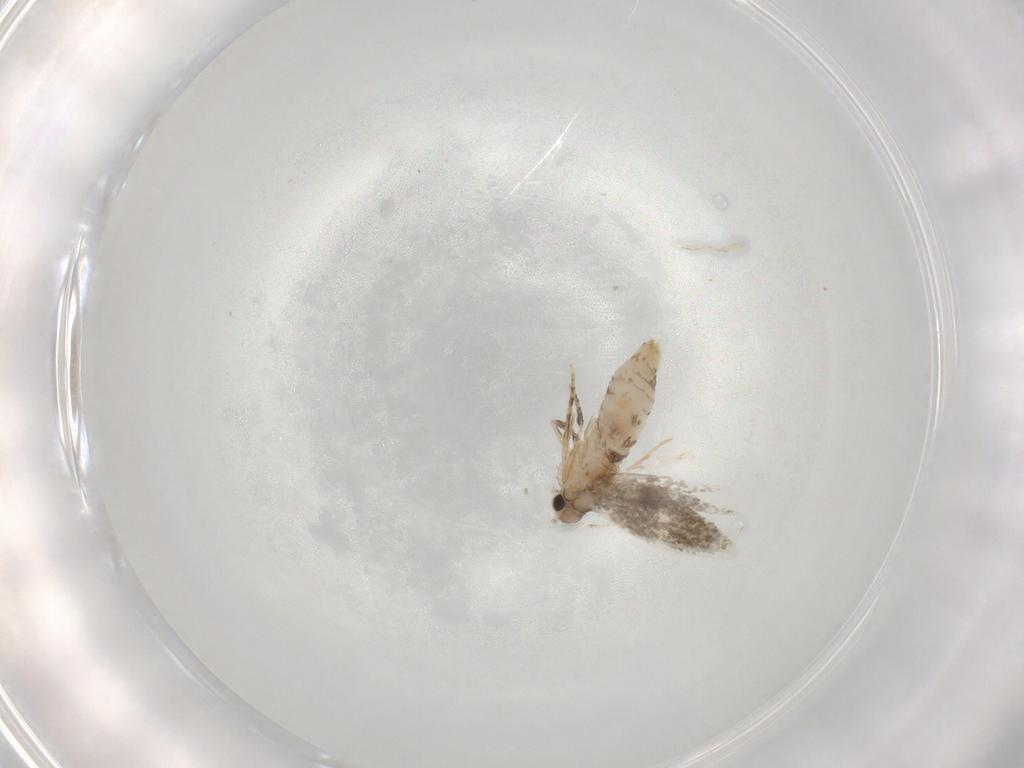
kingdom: Animalia
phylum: Arthropoda
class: Insecta
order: Lepidoptera
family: Tineidae
